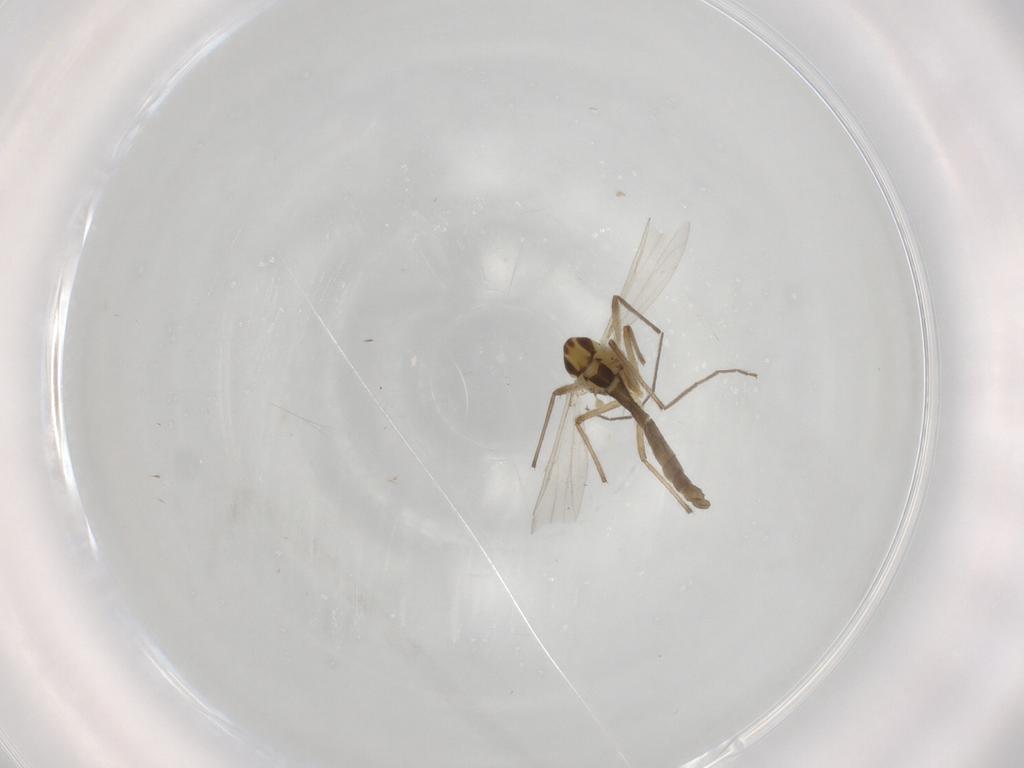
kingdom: Animalia
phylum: Arthropoda
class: Insecta
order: Diptera
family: Chironomidae
